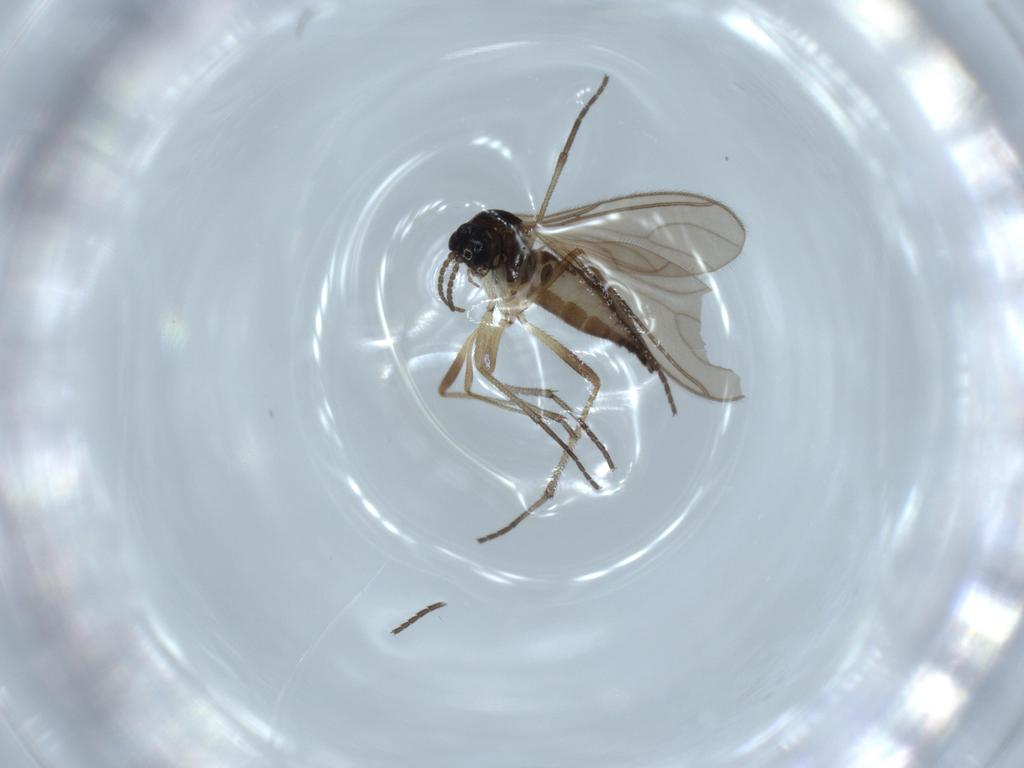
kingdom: Animalia
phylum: Arthropoda
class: Insecta
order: Diptera
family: Sciaridae
